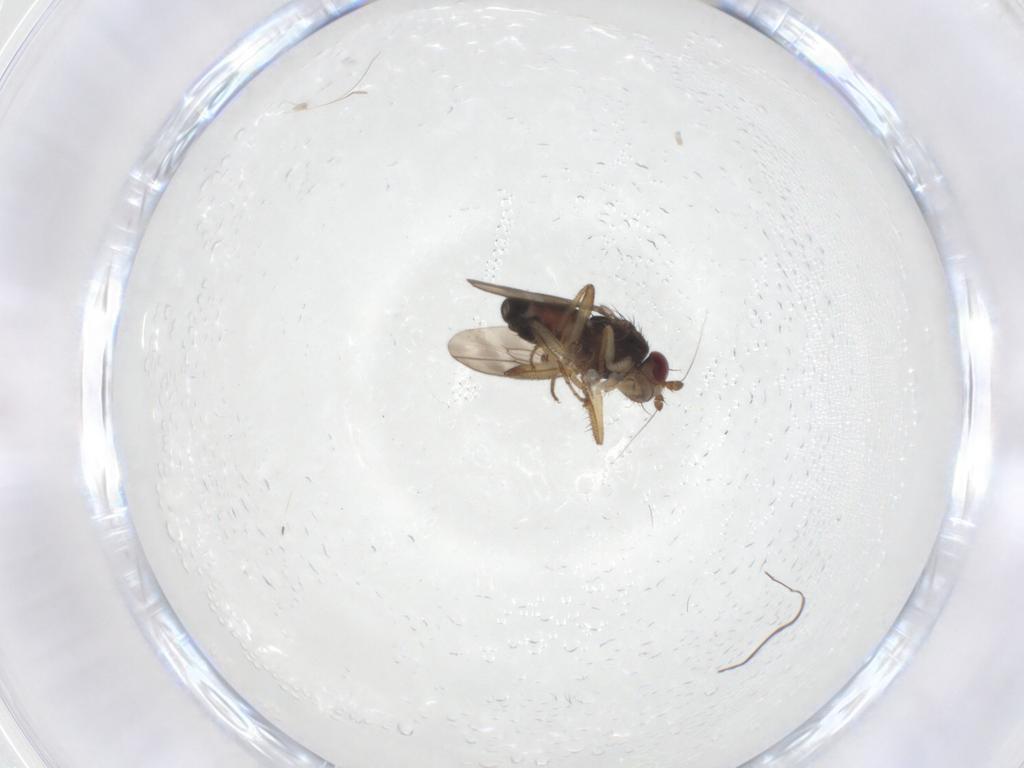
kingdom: Animalia
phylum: Arthropoda
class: Insecta
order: Diptera
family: Sphaeroceridae
